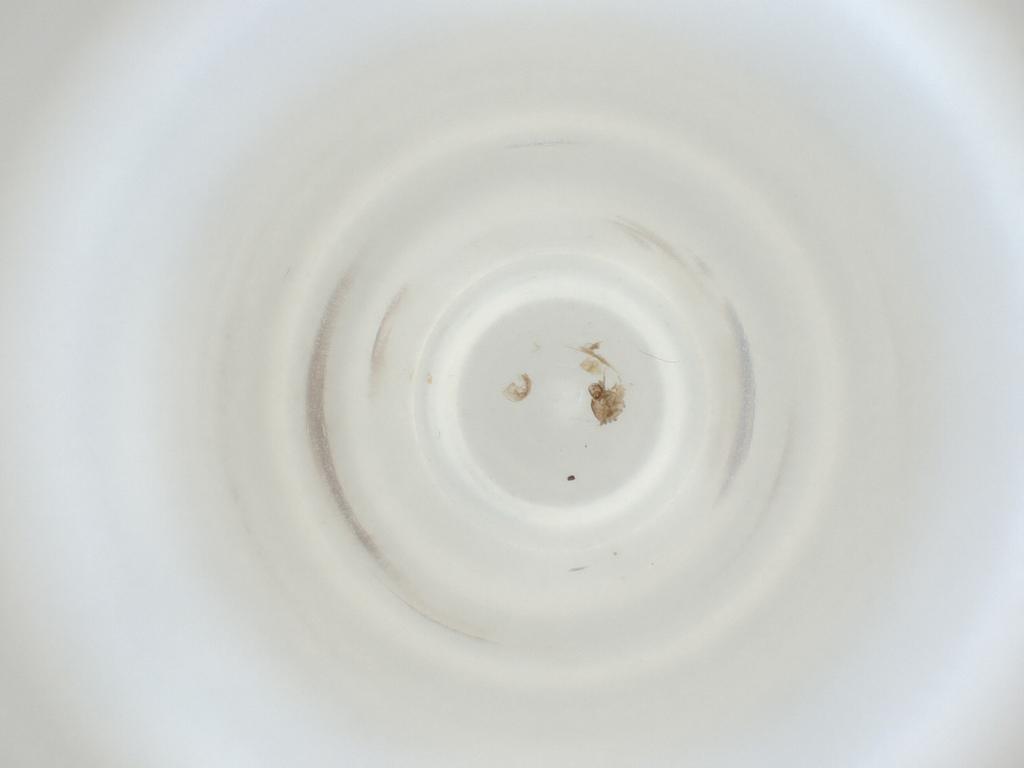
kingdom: Animalia
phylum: Arthropoda
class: Insecta
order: Diptera
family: Cecidomyiidae
